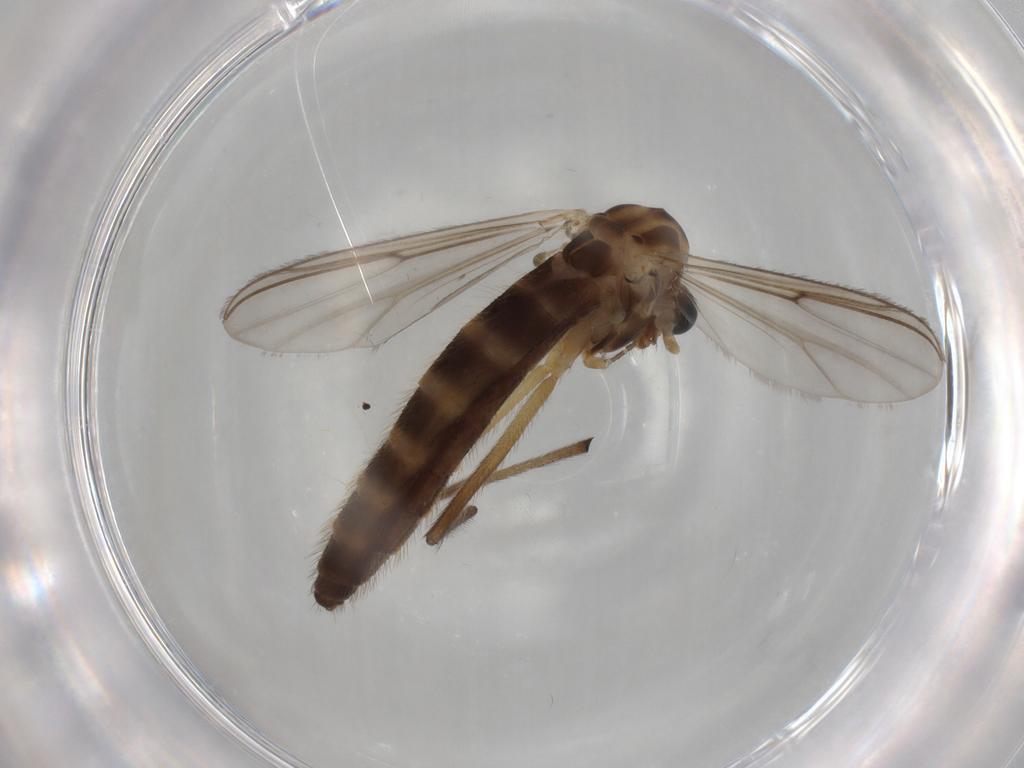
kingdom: Animalia
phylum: Arthropoda
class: Insecta
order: Diptera
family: Chironomidae
